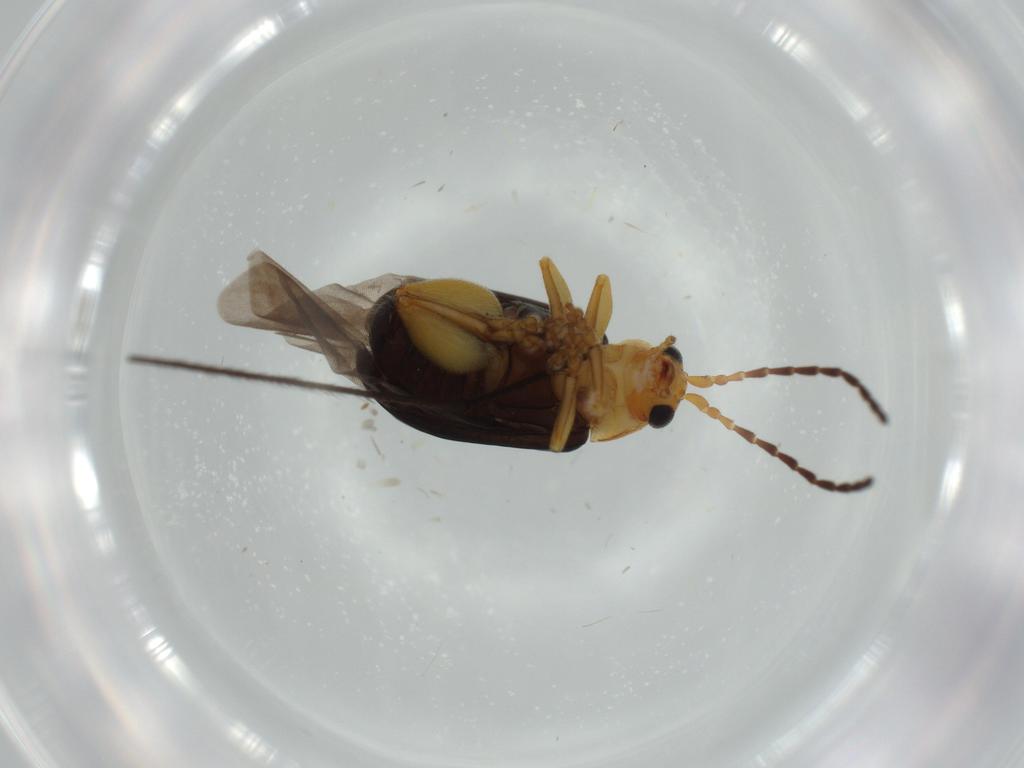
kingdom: Animalia
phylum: Arthropoda
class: Insecta
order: Coleoptera
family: Chrysomelidae
